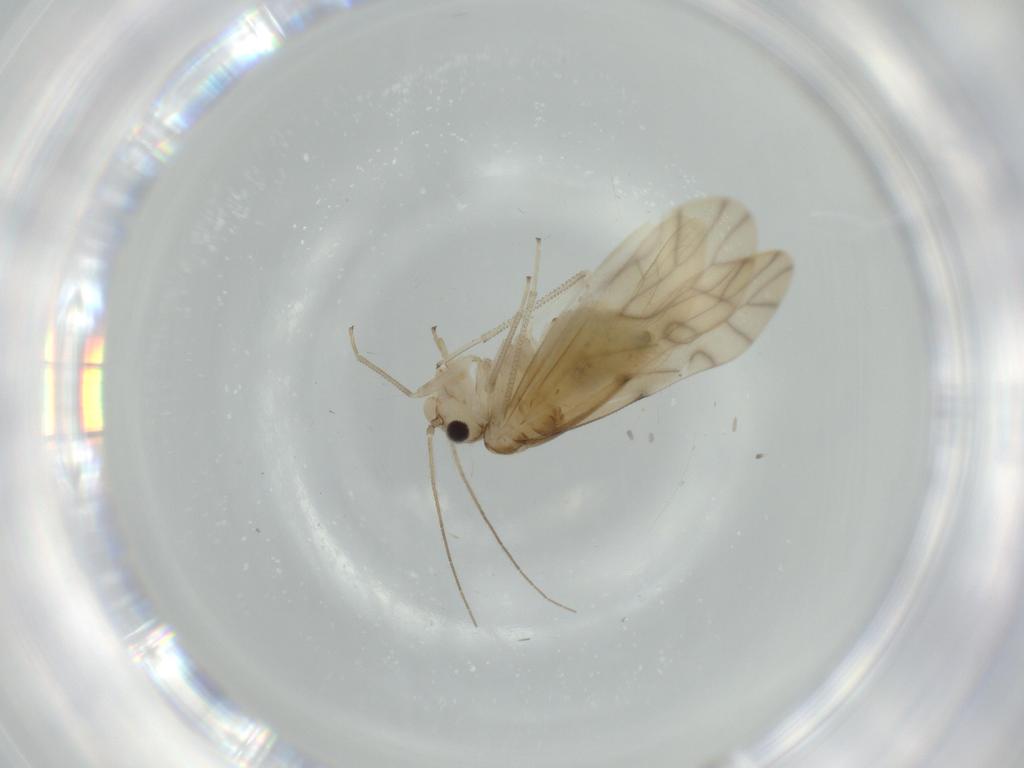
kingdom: Animalia
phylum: Arthropoda
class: Insecta
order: Psocodea
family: Caeciliusidae
